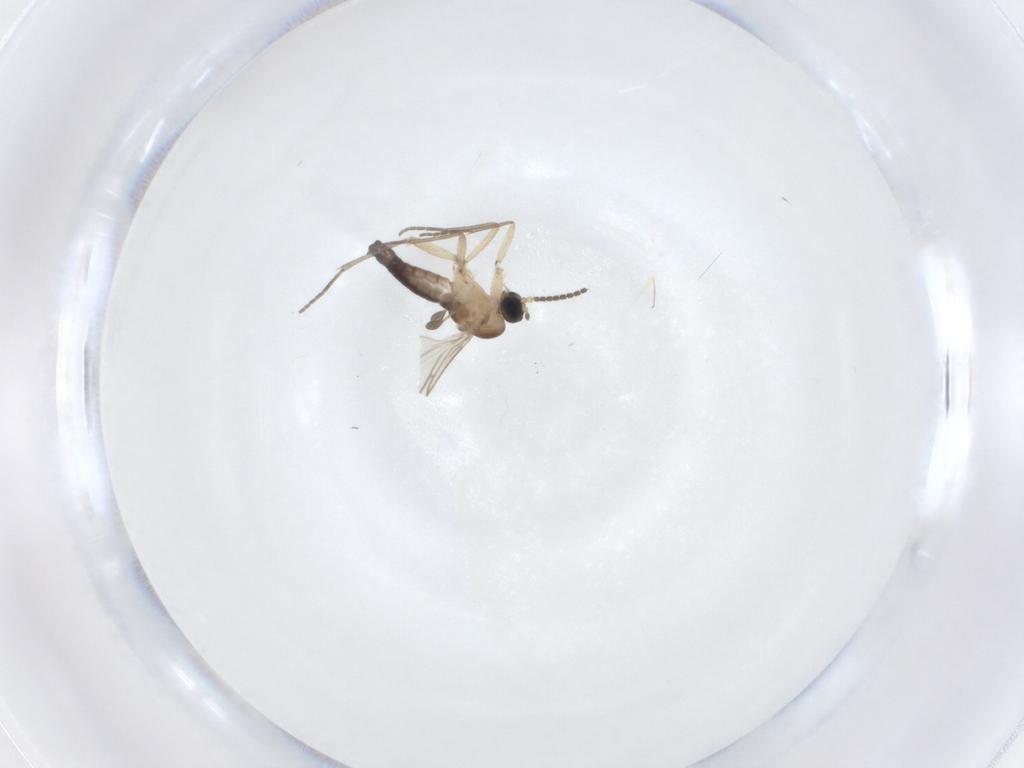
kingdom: Animalia
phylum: Arthropoda
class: Insecta
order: Diptera
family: Sciaridae
